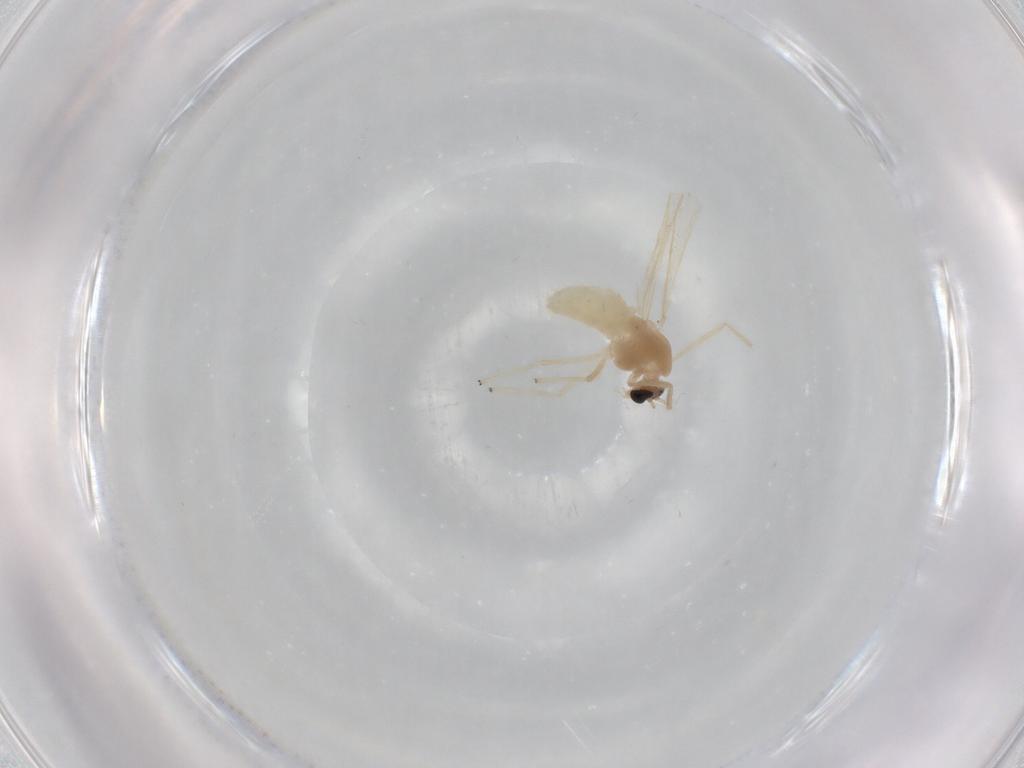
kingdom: Animalia
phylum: Arthropoda
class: Insecta
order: Diptera
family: Chironomidae
